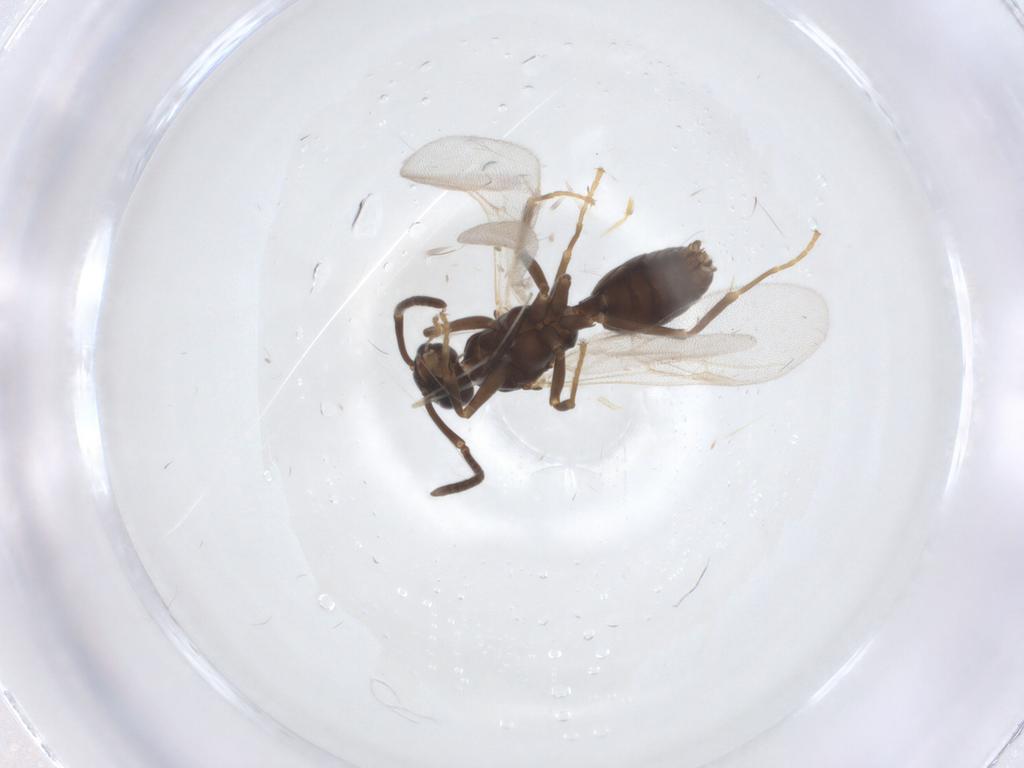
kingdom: Animalia
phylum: Arthropoda
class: Insecta
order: Hymenoptera
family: Formicidae
